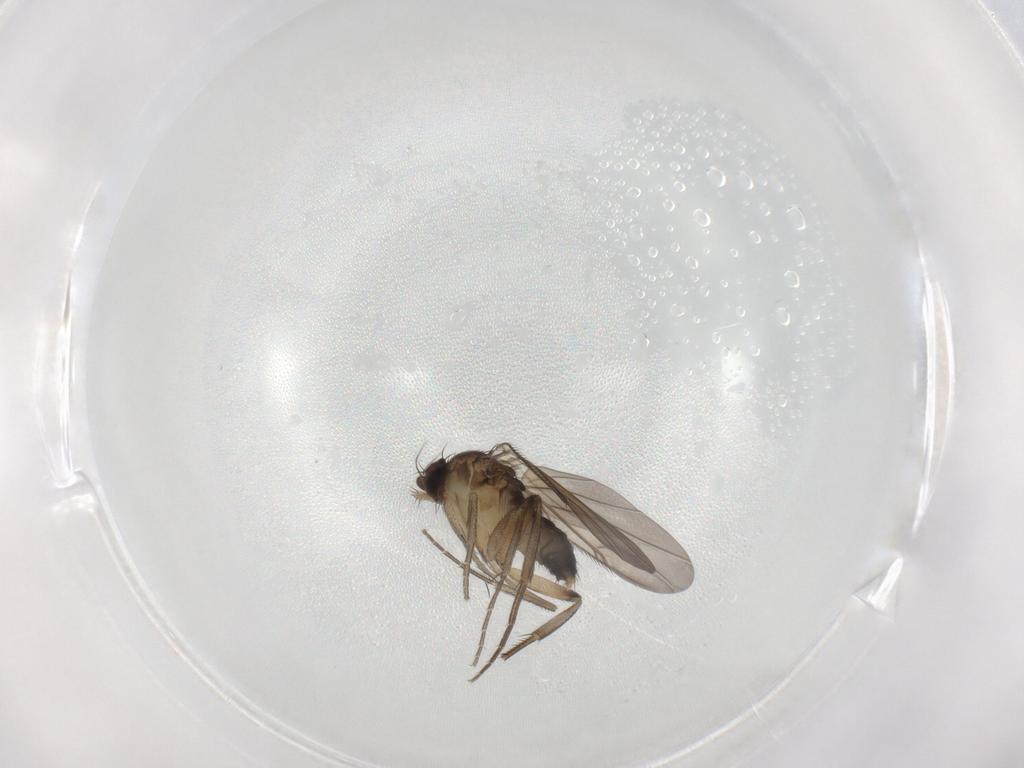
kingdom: Animalia
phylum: Arthropoda
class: Insecta
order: Diptera
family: Phoridae
